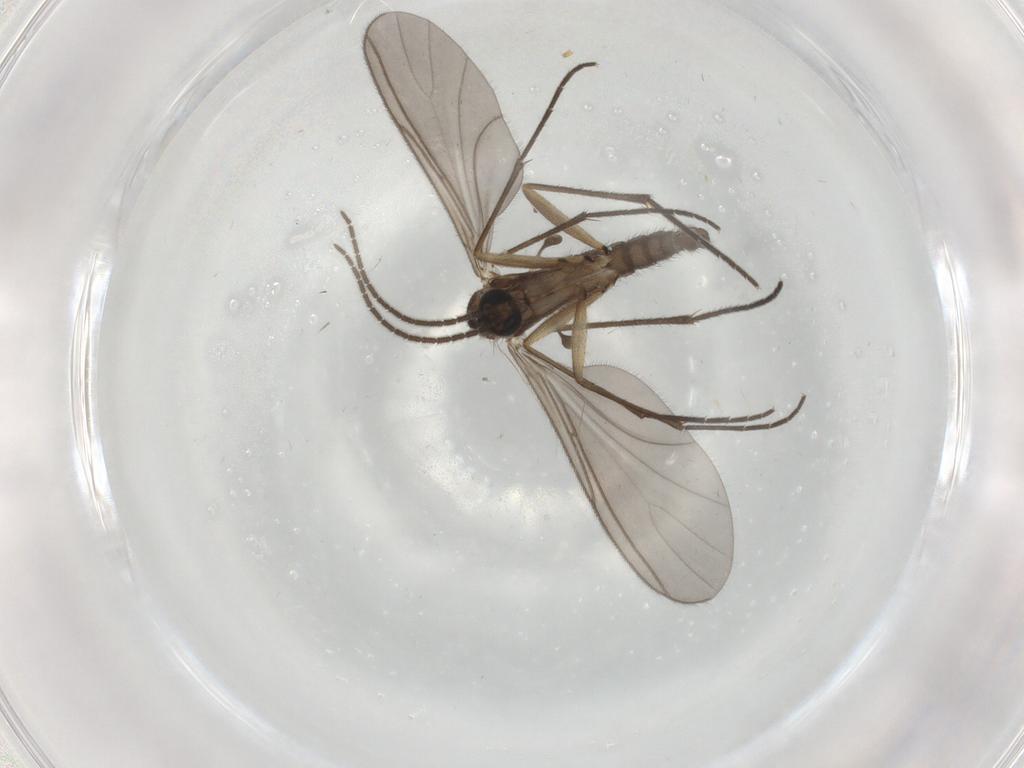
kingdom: Animalia
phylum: Arthropoda
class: Insecta
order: Diptera
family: Sciaridae
